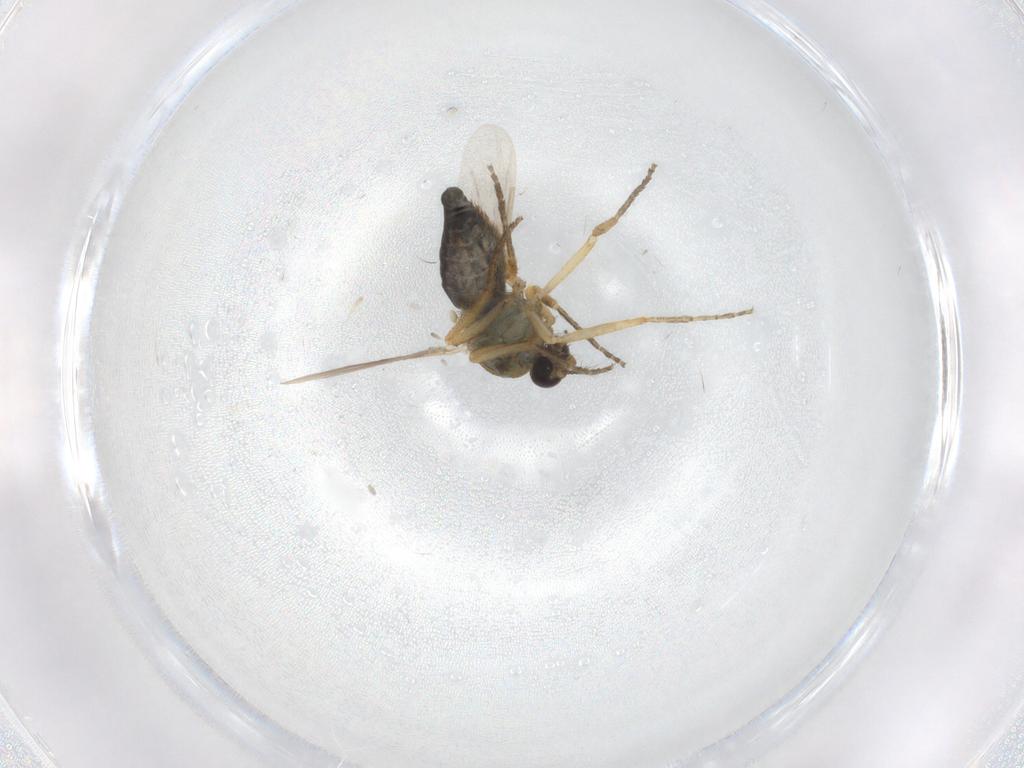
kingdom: Animalia
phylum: Arthropoda
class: Insecta
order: Diptera
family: Ceratopogonidae
